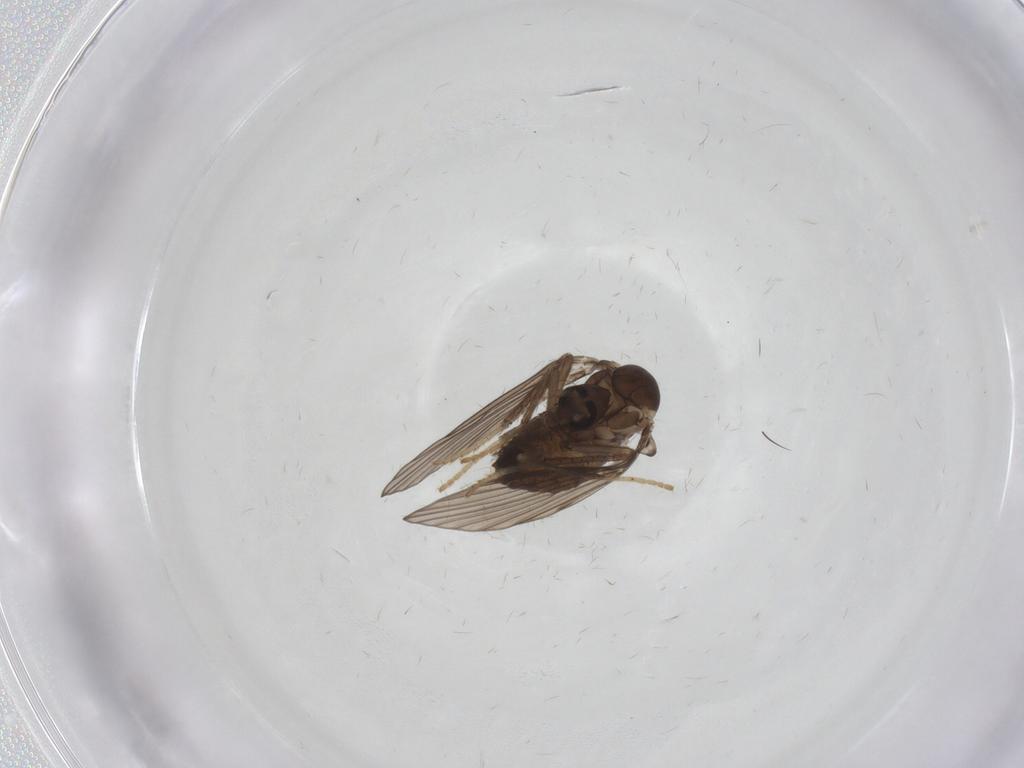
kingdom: Animalia
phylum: Arthropoda
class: Insecta
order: Diptera
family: Psychodidae
